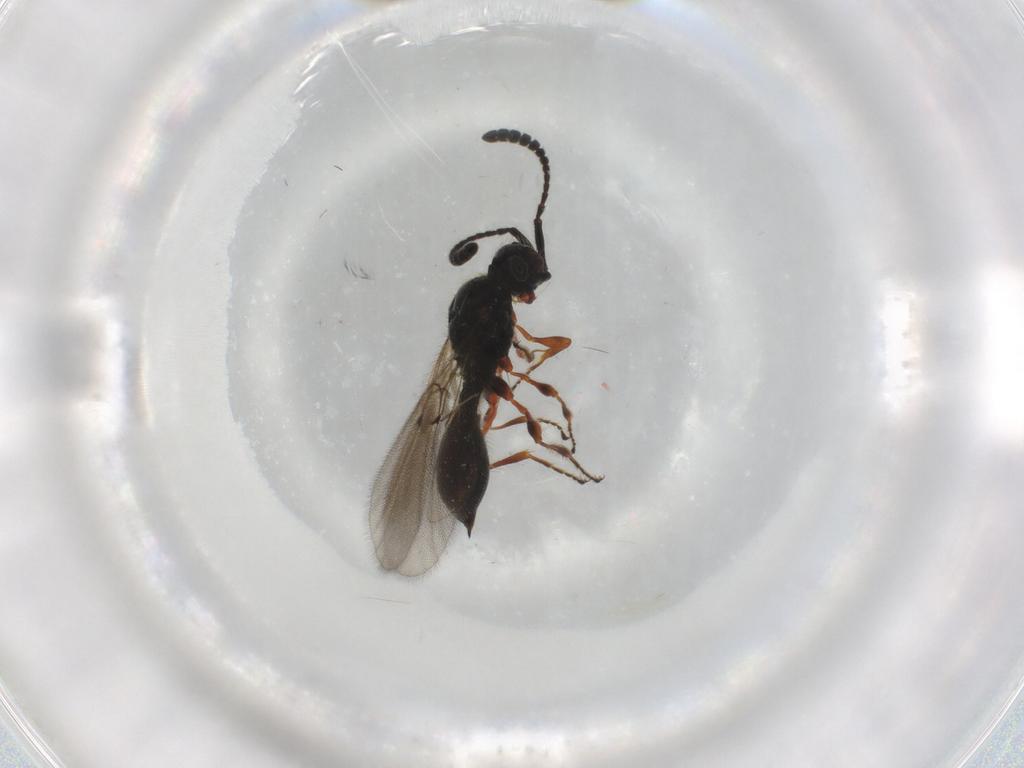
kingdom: Animalia
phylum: Arthropoda
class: Insecta
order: Hymenoptera
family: Diapriidae
